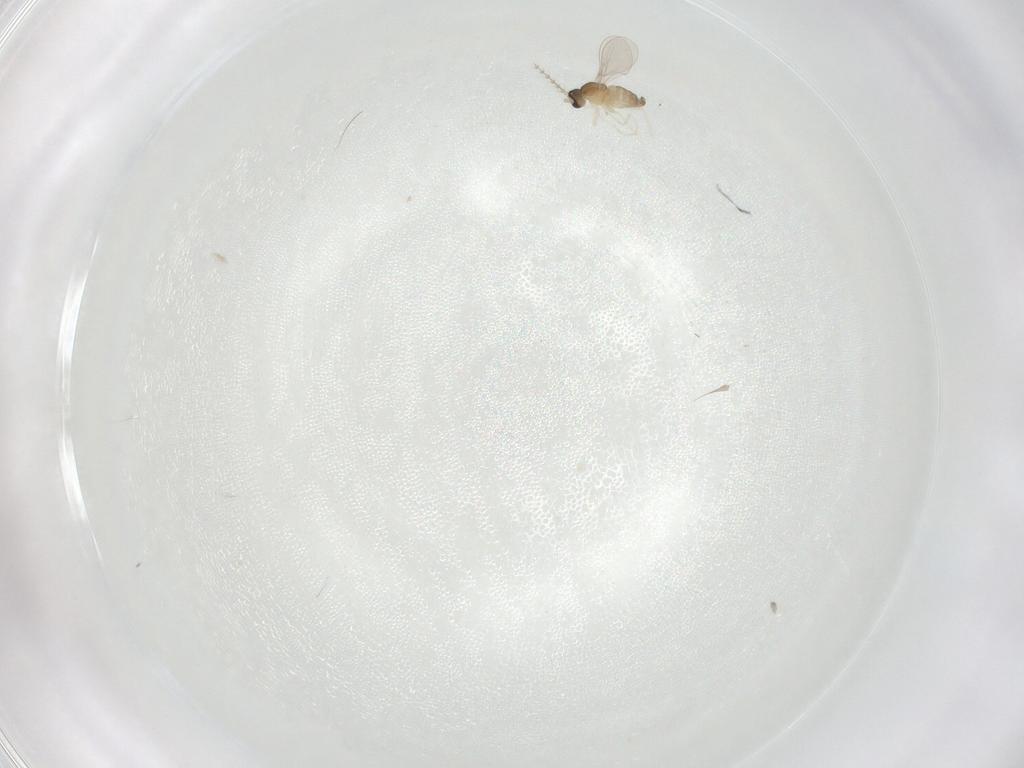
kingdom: Animalia
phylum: Arthropoda
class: Insecta
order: Diptera
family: Cecidomyiidae
